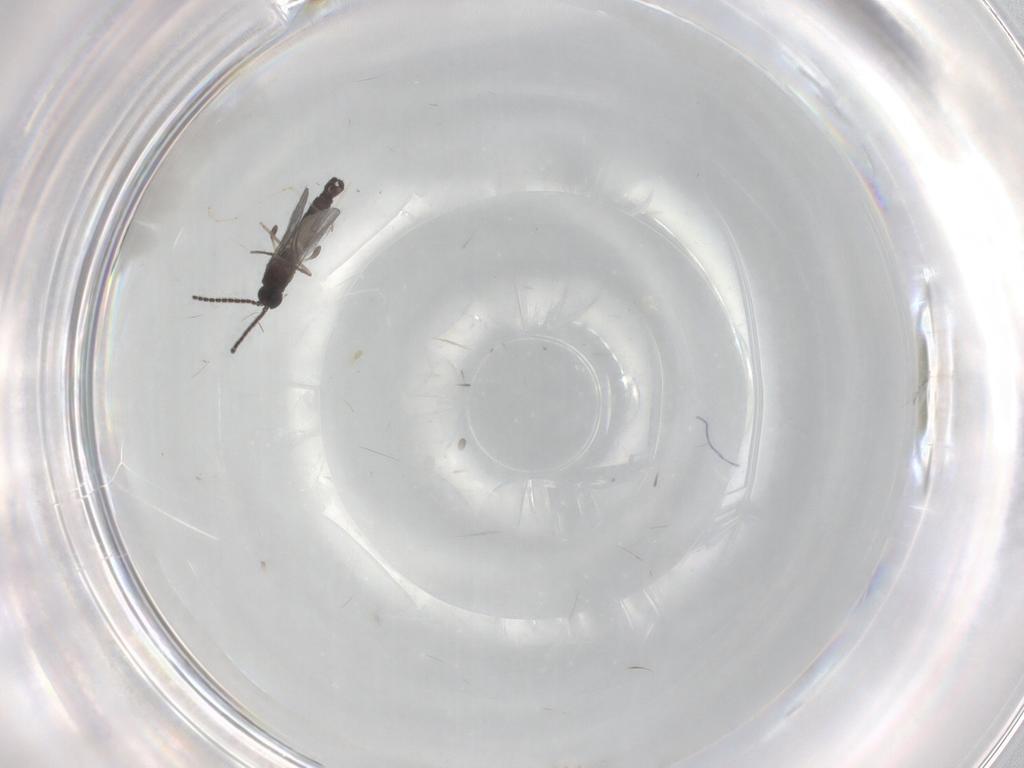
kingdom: Animalia
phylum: Arthropoda
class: Insecta
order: Diptera
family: Sciaridae
